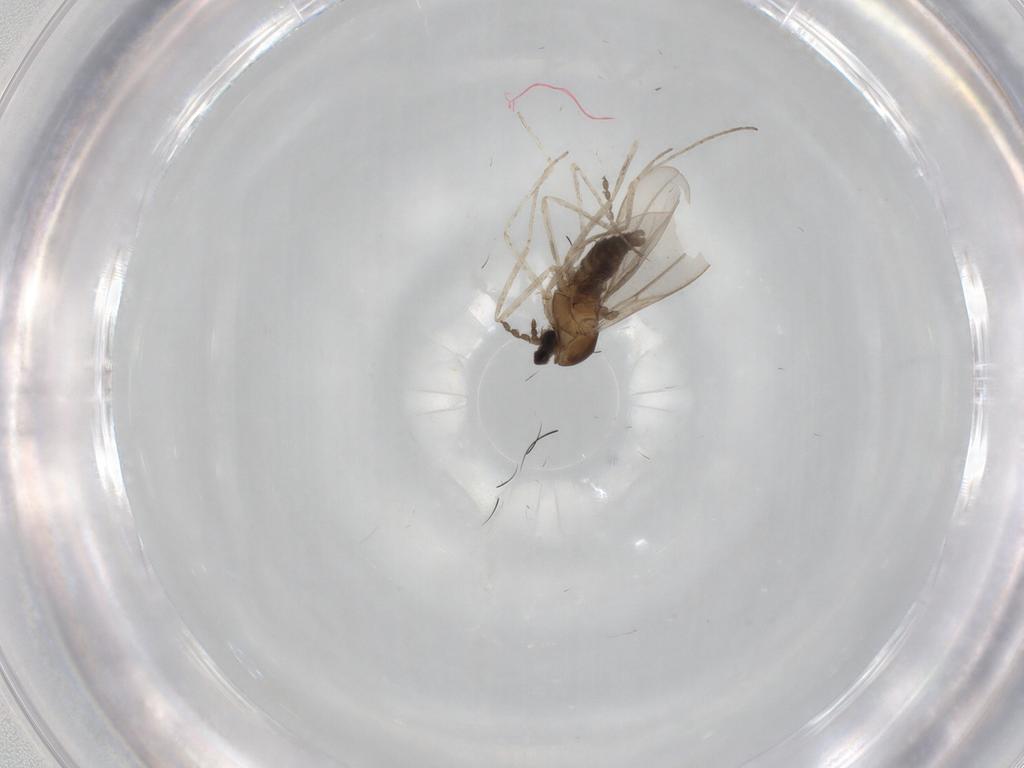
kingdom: Animalia
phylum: Arthropoda
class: Insecta
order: Diptera
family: Dolichopodidae
